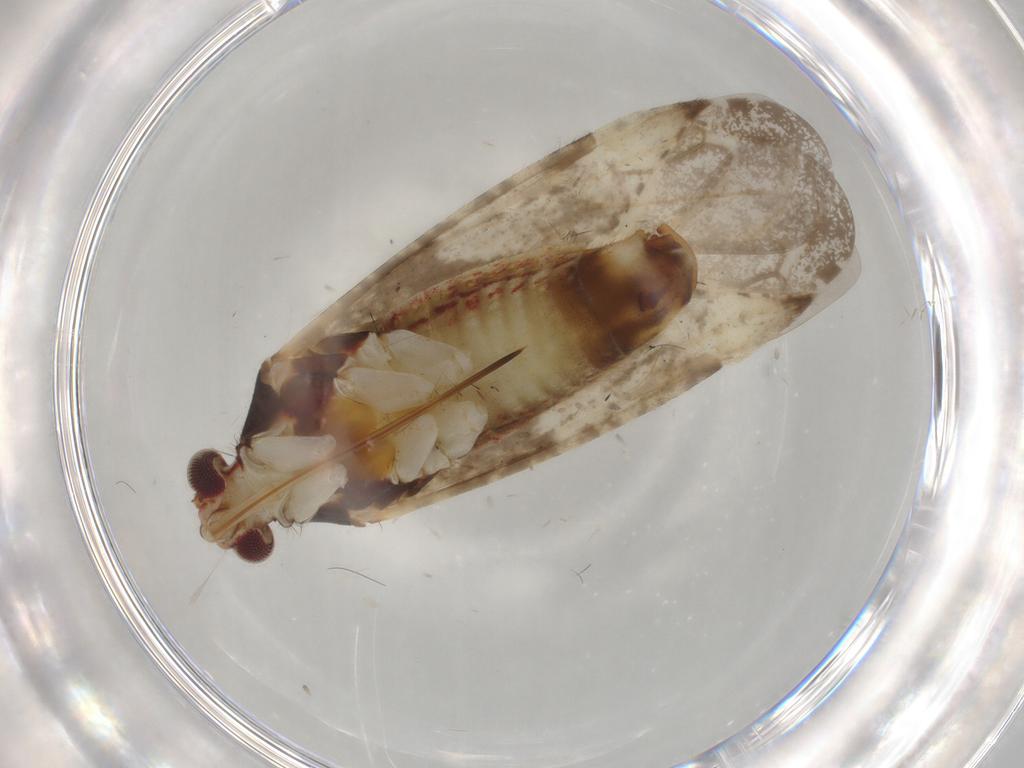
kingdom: Animalia
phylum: Arthropoda
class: Insecta
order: Hemiptera
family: Miridae
